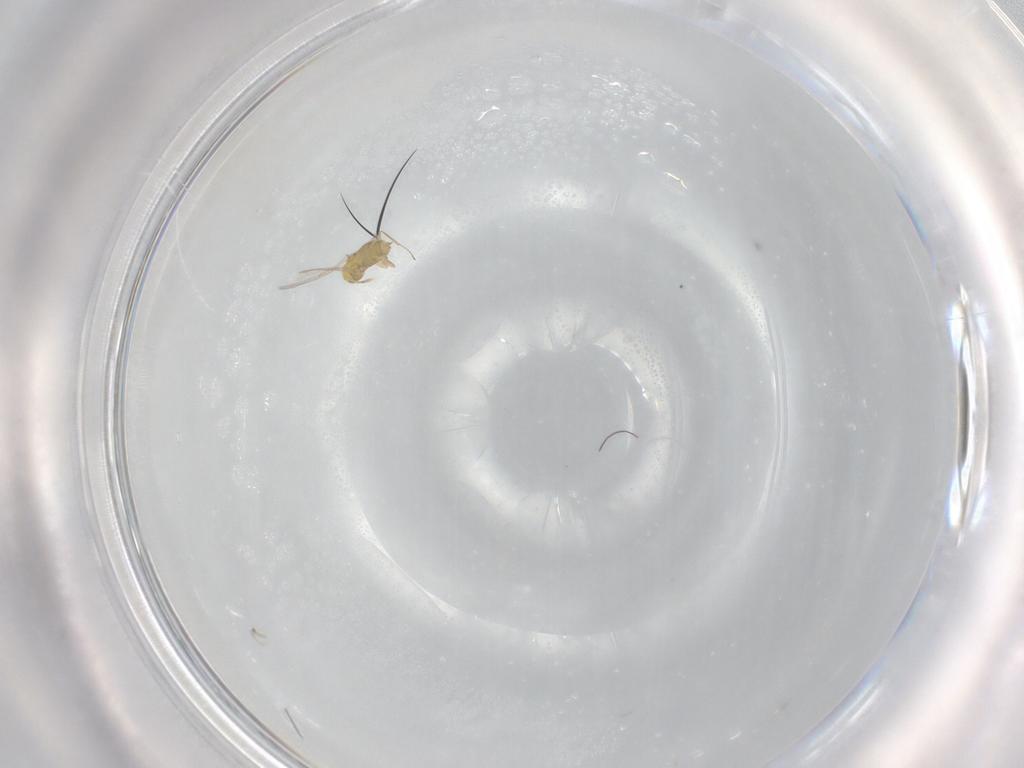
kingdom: Animalia
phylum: Arthropoda
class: Insecta
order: Hymenoptera
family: Aphelinidae
